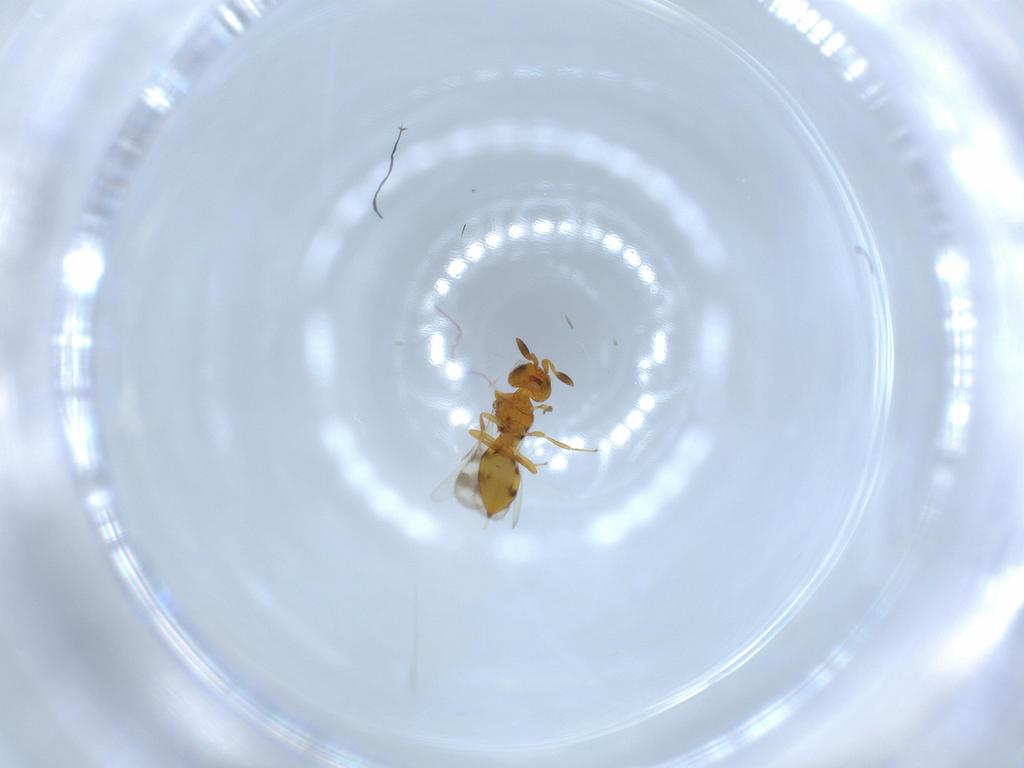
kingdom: Animalia
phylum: Arthropoda
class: Insecta
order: Hymenoptera
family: Scelionidae
